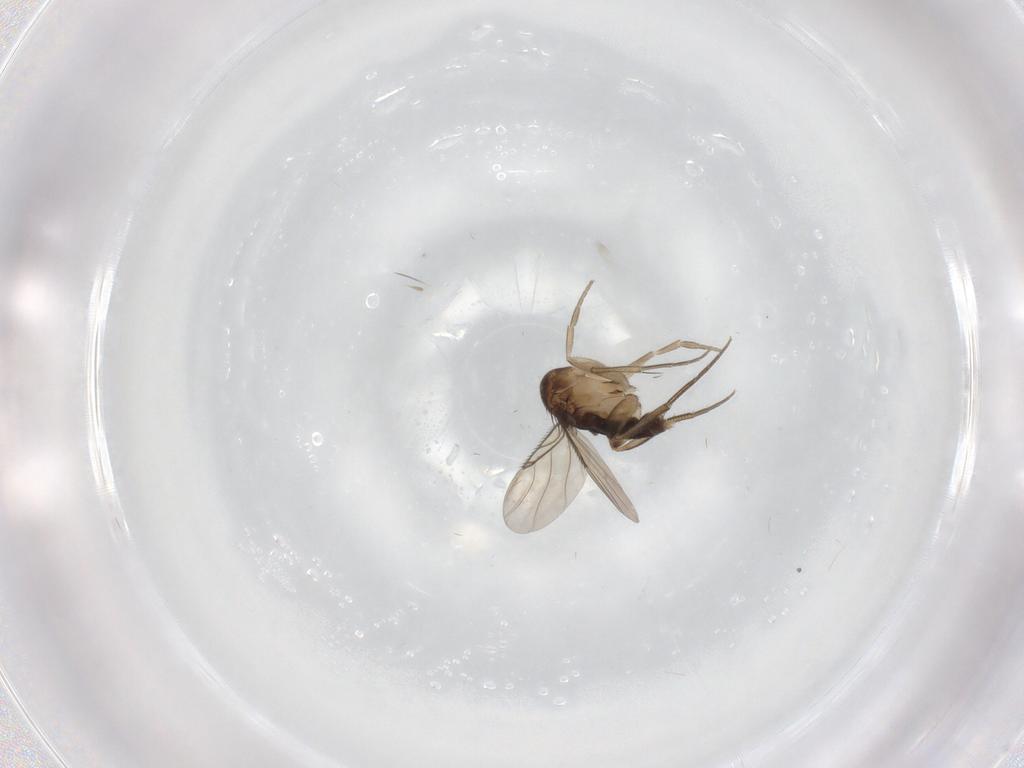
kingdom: Animalia
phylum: Arthropoda
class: Insecta
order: Diptera
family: Phoridae
